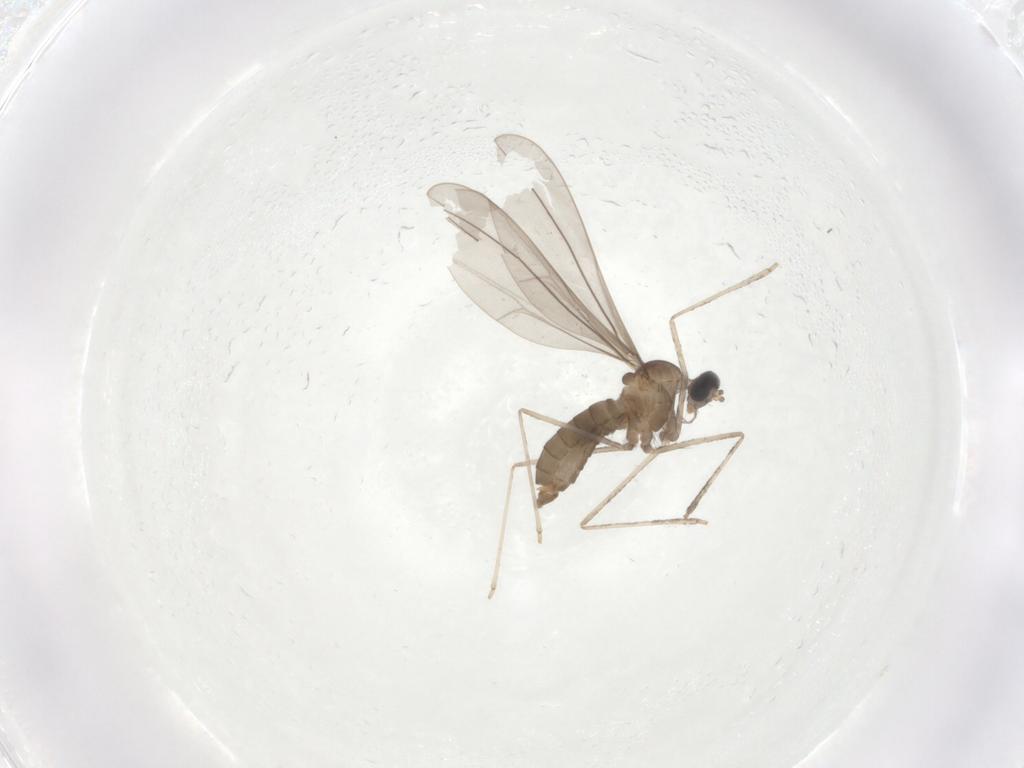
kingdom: Animalia
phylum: Arthropoda
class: Insecta
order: Diptera
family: Cecidomyiidae
